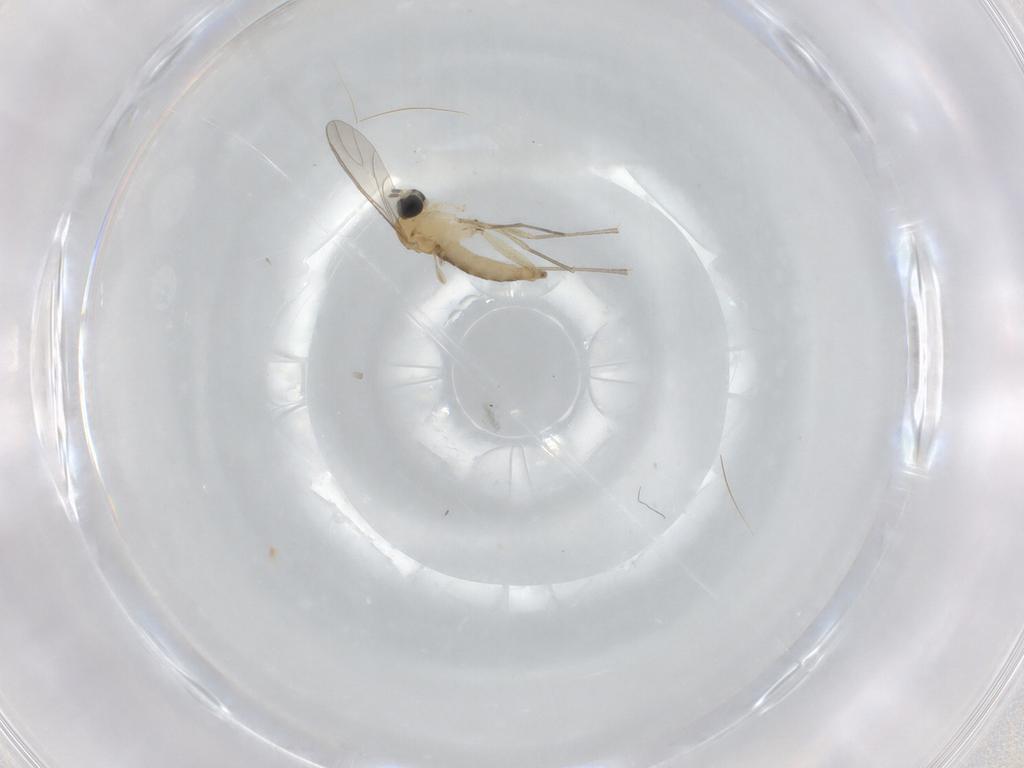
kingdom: Animalia
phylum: Arthropoda
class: Insecta
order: Diptera
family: Sciaridae
